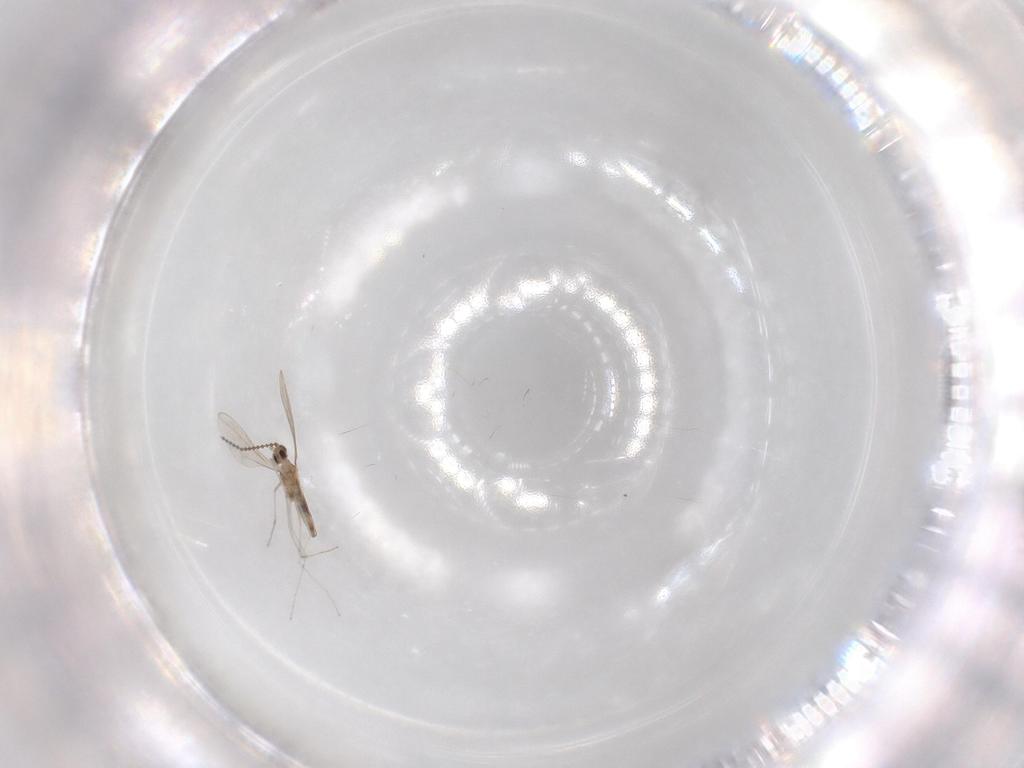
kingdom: Animalia
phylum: Arthropoda
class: Insecta
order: Diptera
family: Cecidomyiidae
